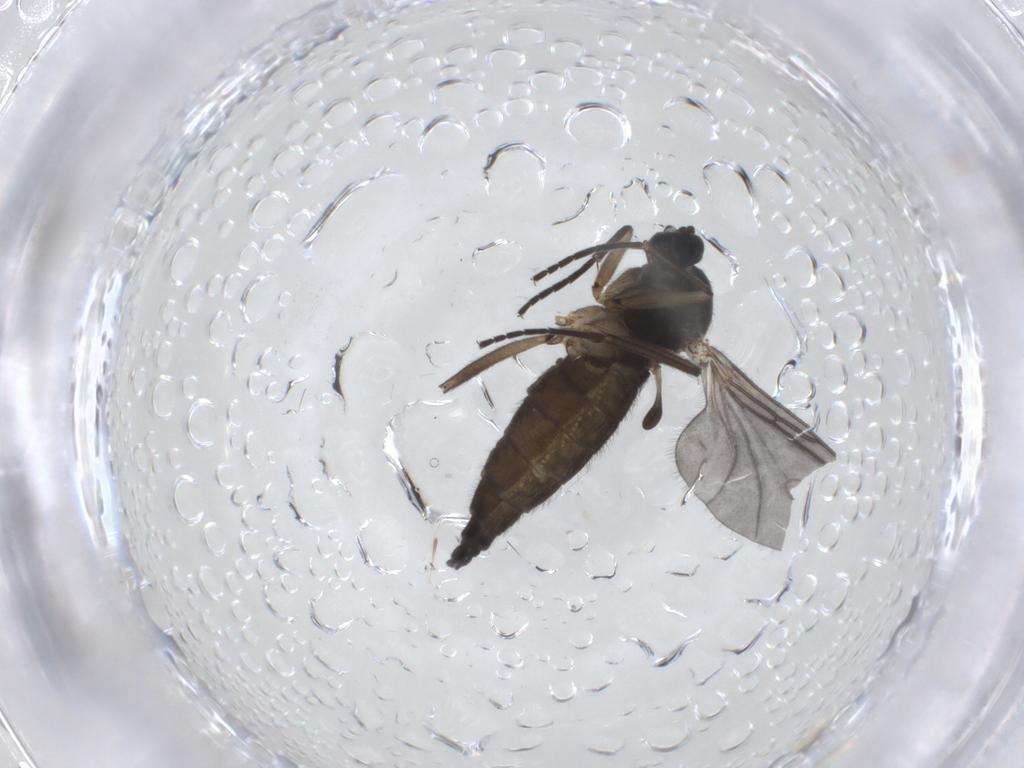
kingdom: Animalia
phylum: Arthropoda
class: Insecta
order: Diptera
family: Sciaridae
